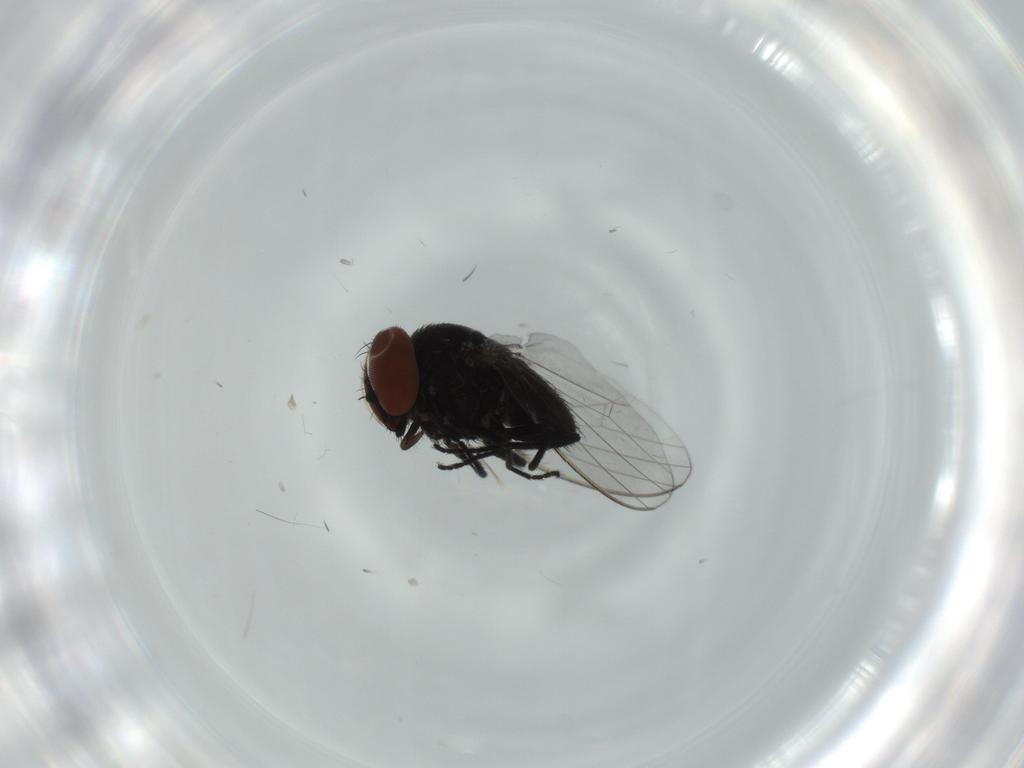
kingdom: Animalia
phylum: Arthropoda
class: Insecta
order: Diptera
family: Milichiidae
